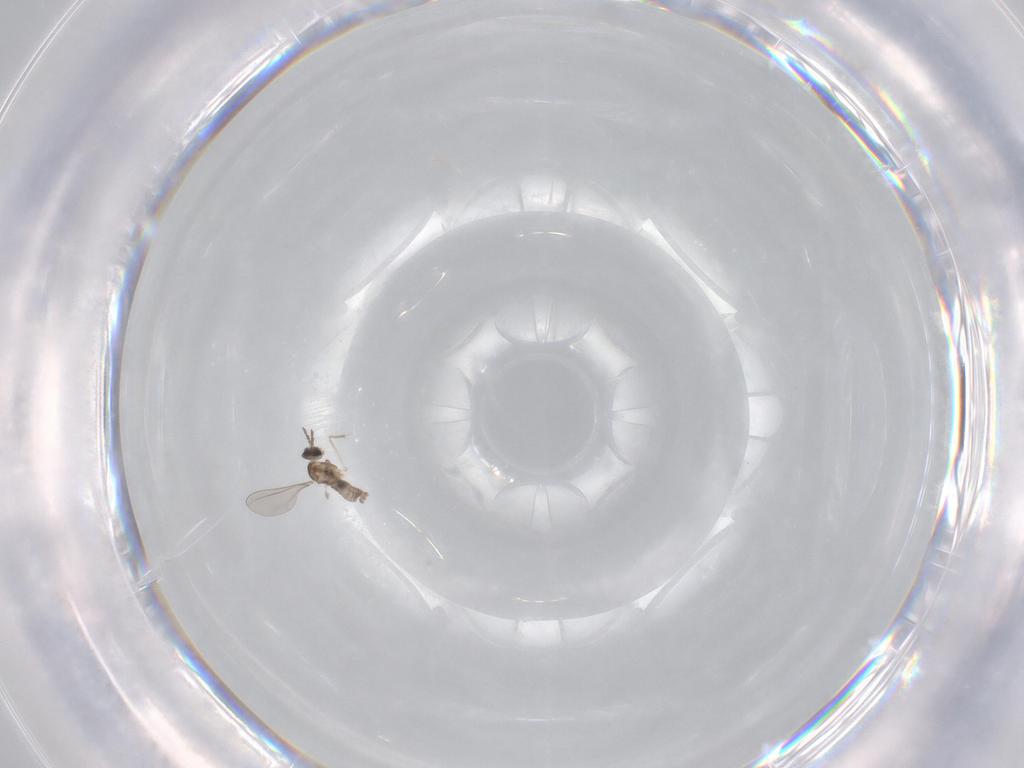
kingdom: Animalia
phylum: Arthropoda
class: Insecta
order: Diptera
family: Cecidomyiidae
